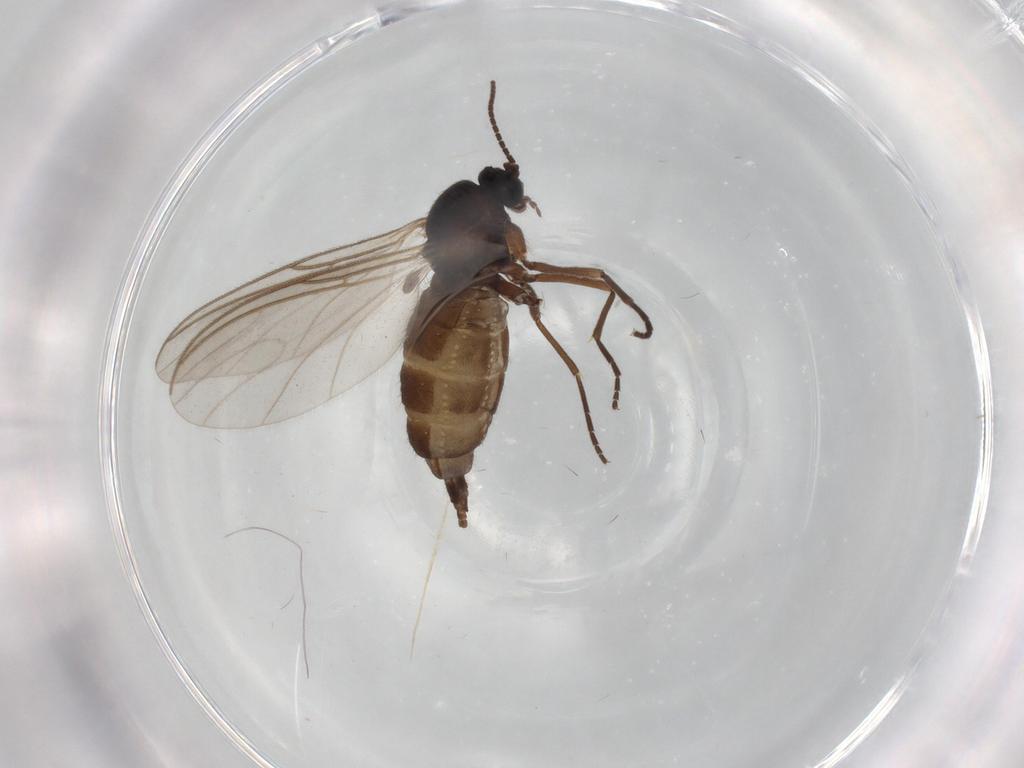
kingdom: Animalia
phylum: Arthropoda
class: Insecta
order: Diptera
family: Sciaridae
